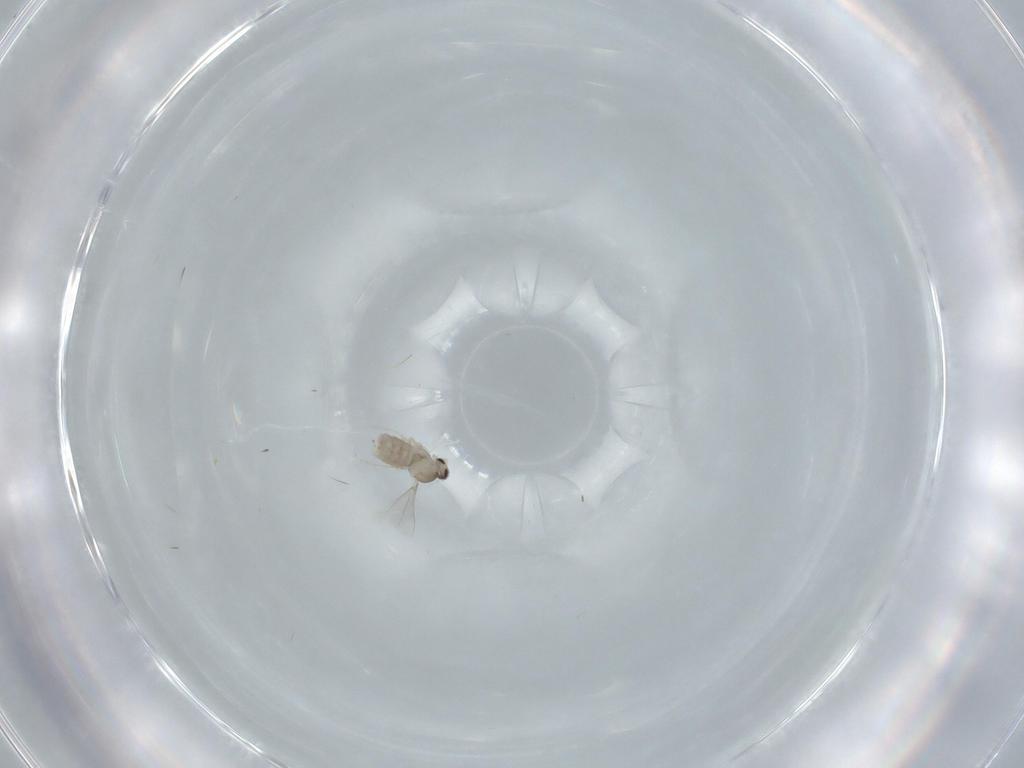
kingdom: Animalia
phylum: Arthropoda
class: Insecta
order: Diptera
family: Cecidomyiidae
